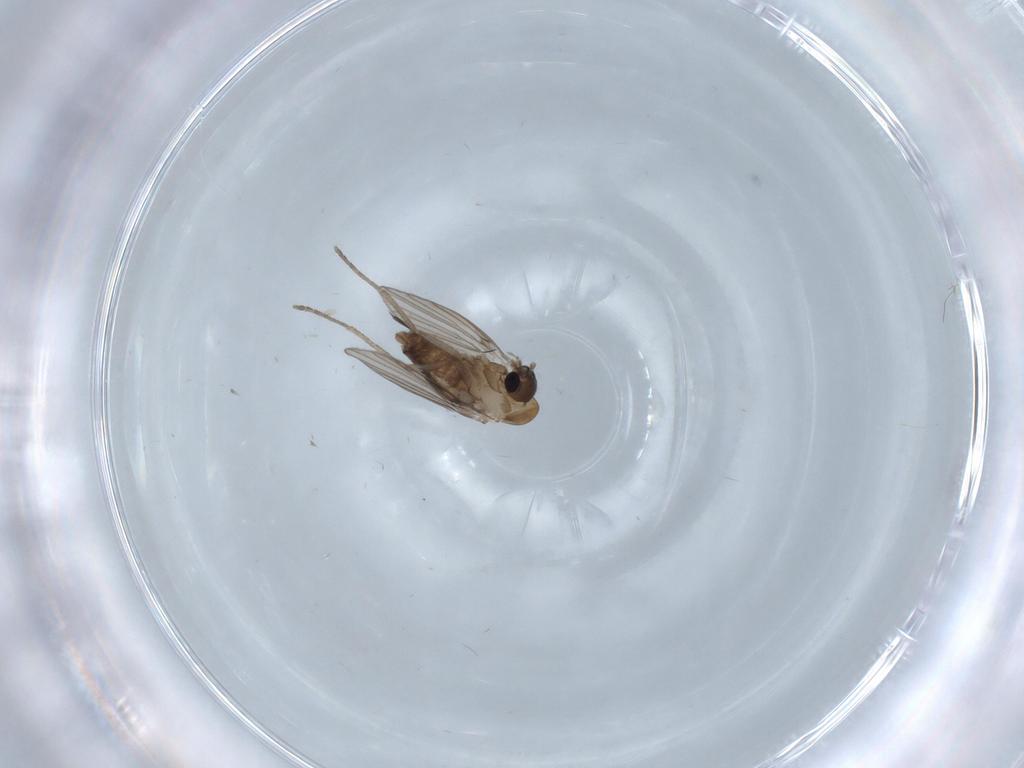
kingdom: Animalia
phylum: Arthropoda
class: Insecta
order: Diptera
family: Psychodidae
